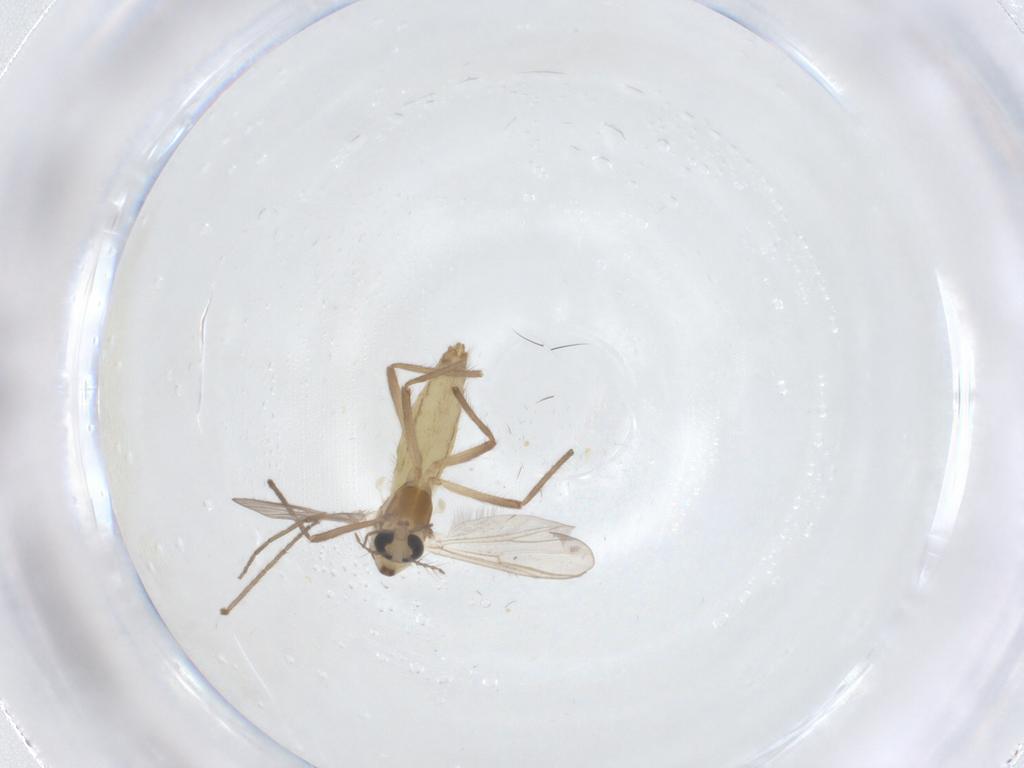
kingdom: Animalia
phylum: Arthropoda
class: Insecta
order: Diptera
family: Chironomidae
